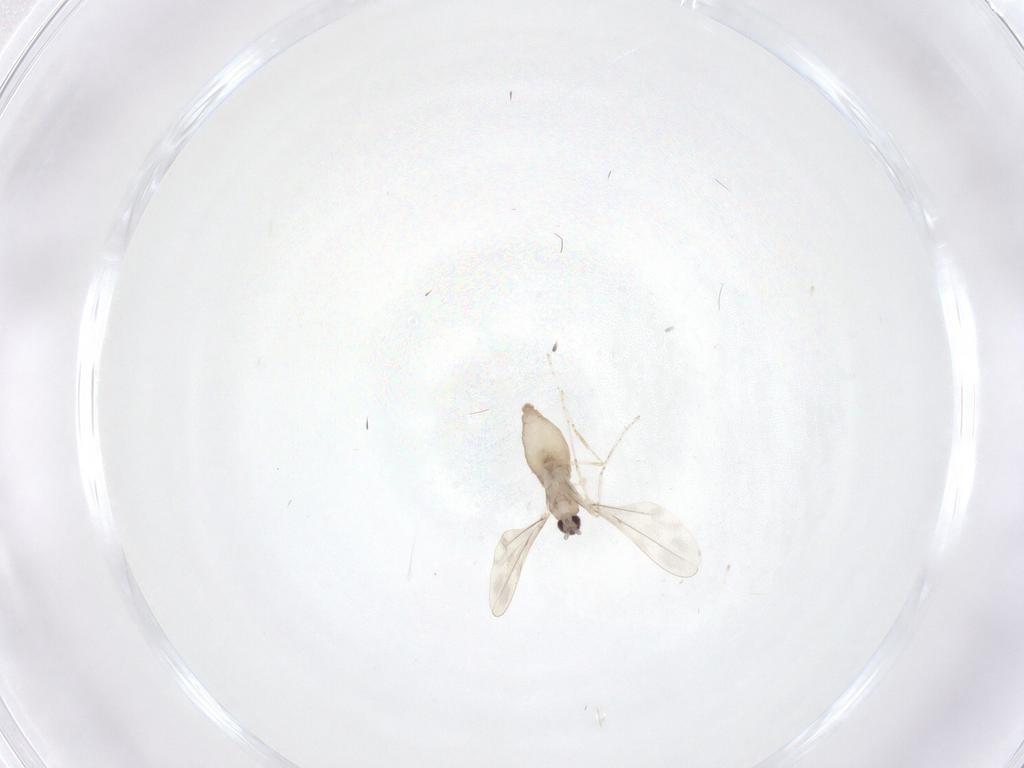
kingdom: Animalia
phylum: Arthropoda
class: Insecta
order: Diptera
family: Cecidomyiidae
